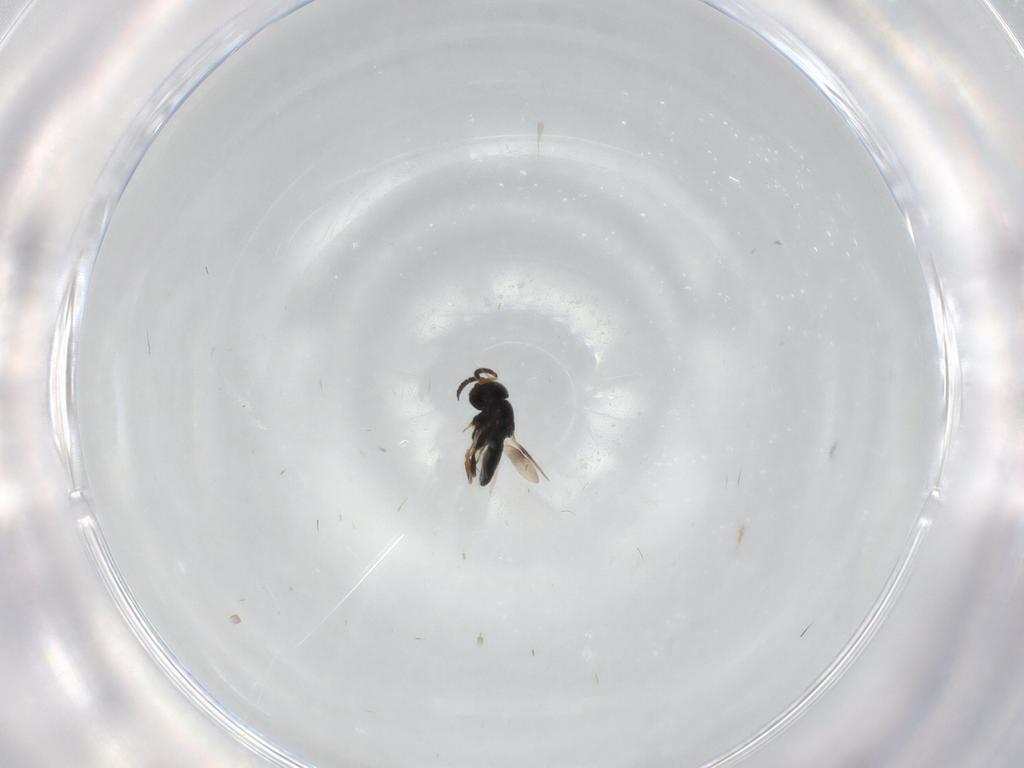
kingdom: Animalia
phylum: Arthropoda
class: Insecta
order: Hymenoptera
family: Scelionidae
